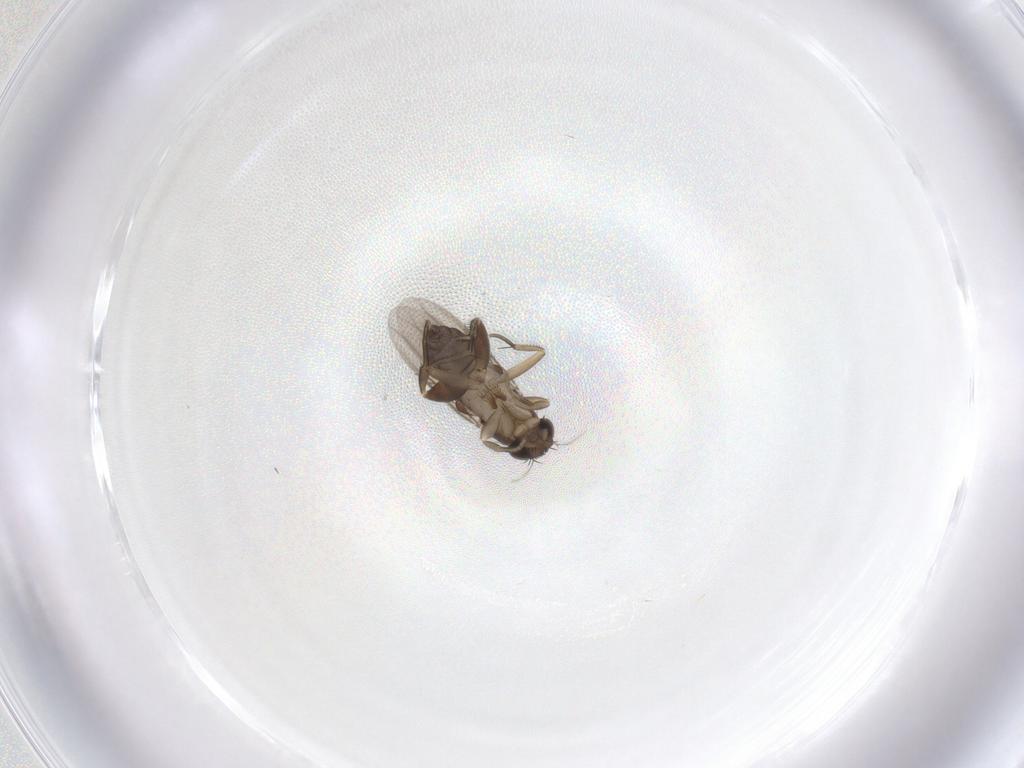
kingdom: Animalia
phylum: Arthropoda
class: Insecta
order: Diptera
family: Phoridae
